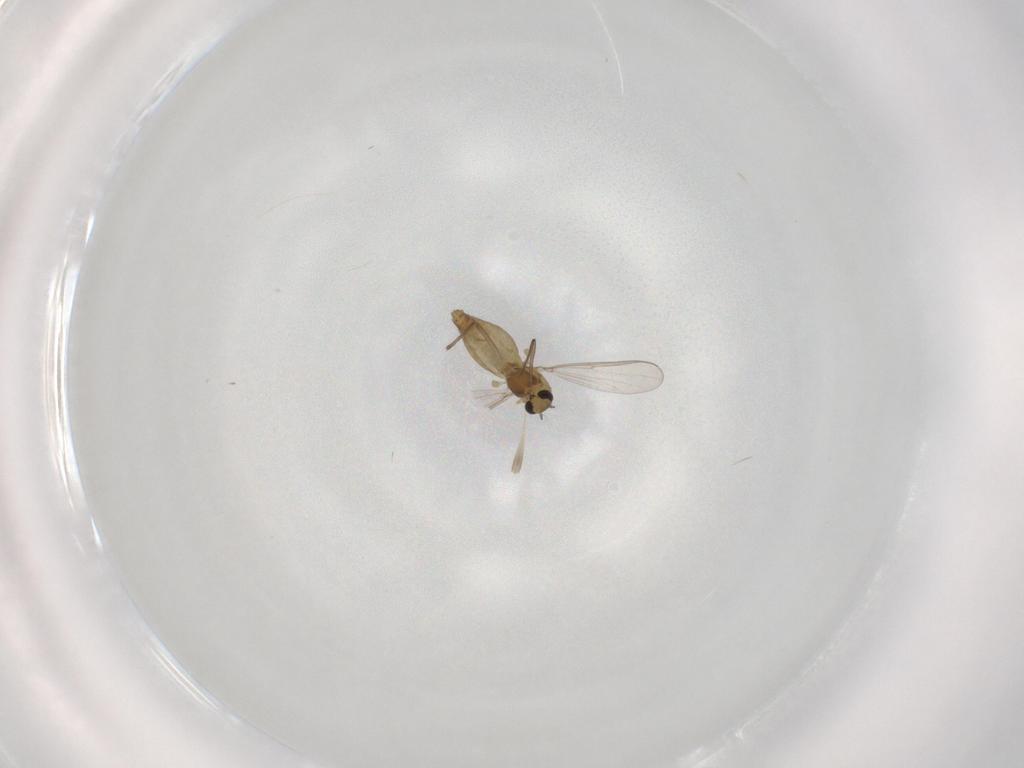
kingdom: Animalia
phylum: Arthropoda
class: Insecta
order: Diptera
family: Chironomidae
